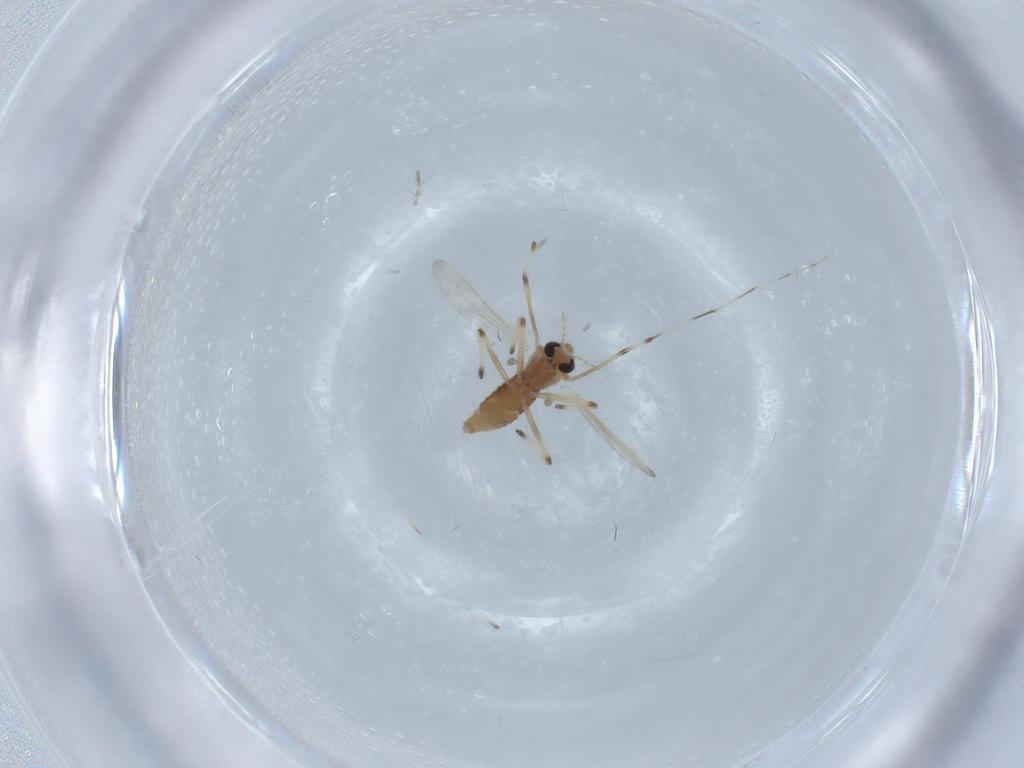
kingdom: Animalia
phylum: Arthropoda
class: Insecta
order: Diptera
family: Chironomidae
